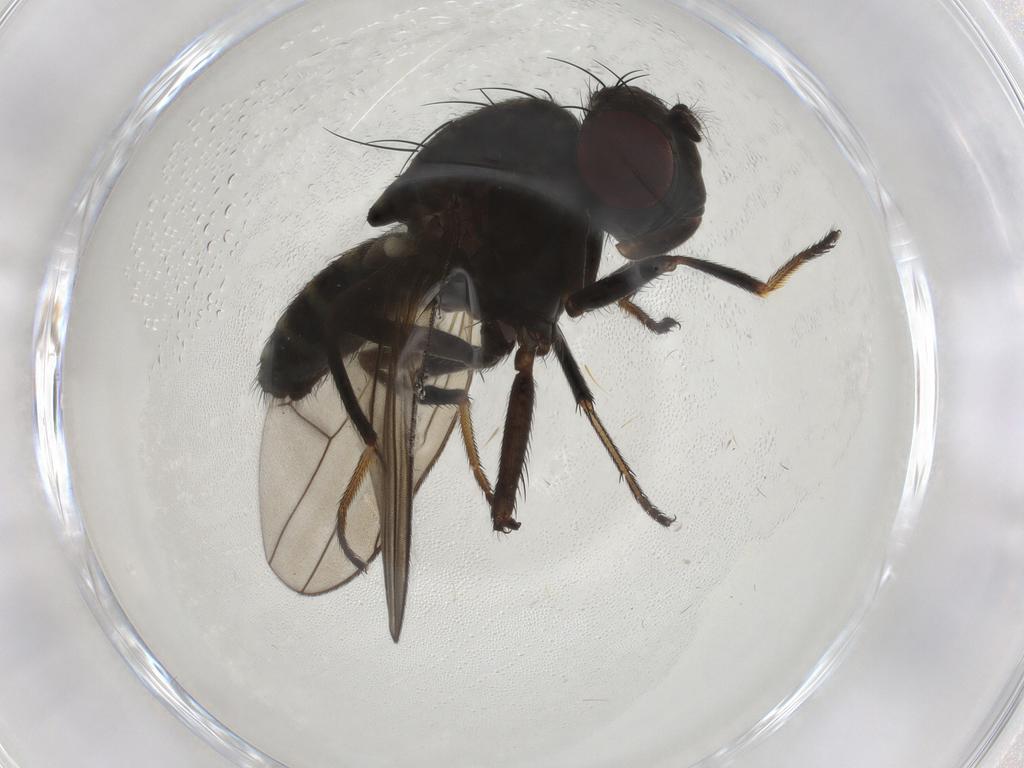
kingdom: Animalia
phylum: Arthropoda
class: Insecta
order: Diptera
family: Ephydridae
